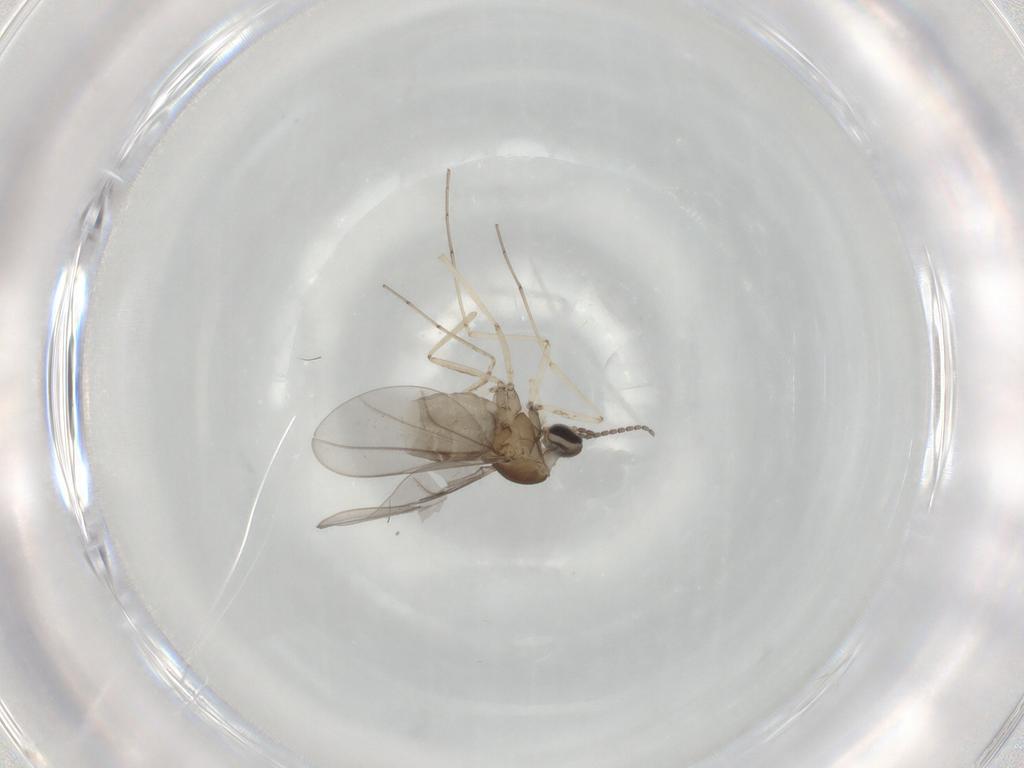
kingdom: Animalia
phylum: Arthropoda
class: Insecta
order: Diptera
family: Cecidomyiidae
